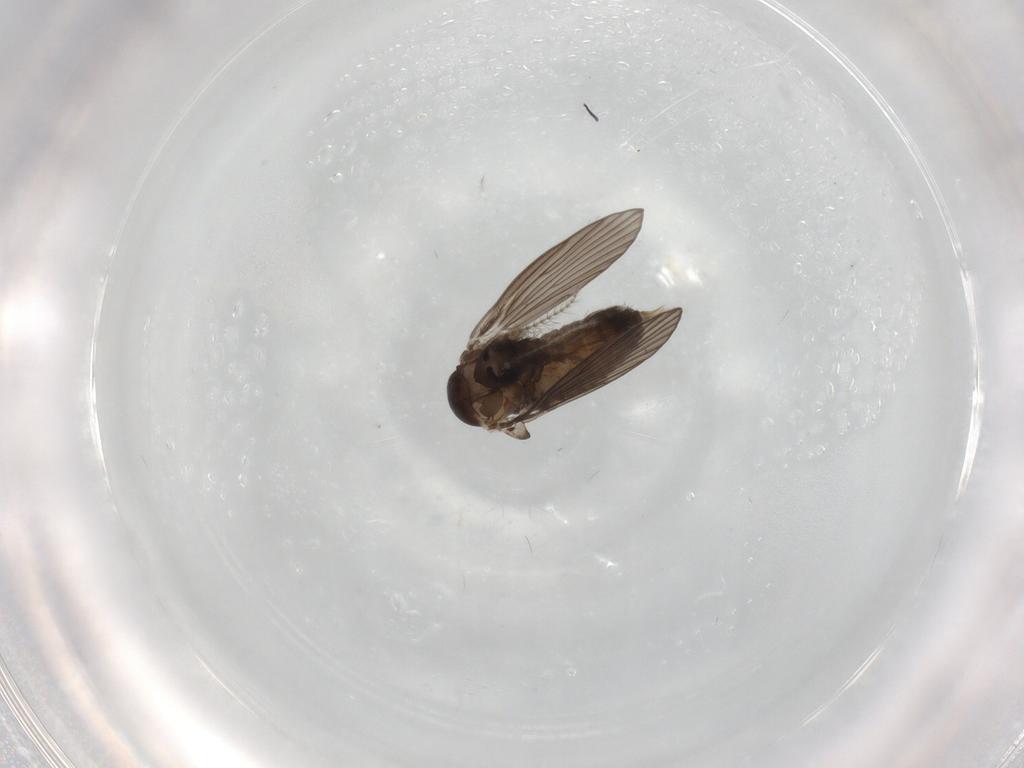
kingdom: Animalia
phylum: Arthropoda
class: Insecta
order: Diptera
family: Psychodidae
